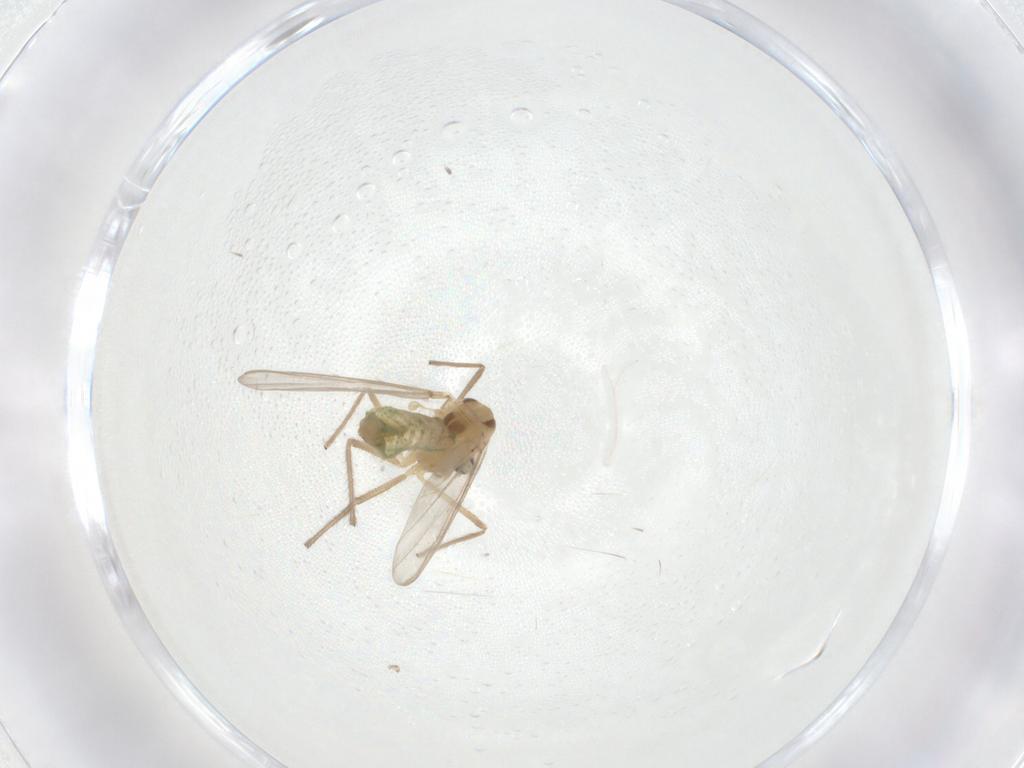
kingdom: Animalia
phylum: Arthropoda
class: Insecta
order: Diptera
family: Chironomidae
